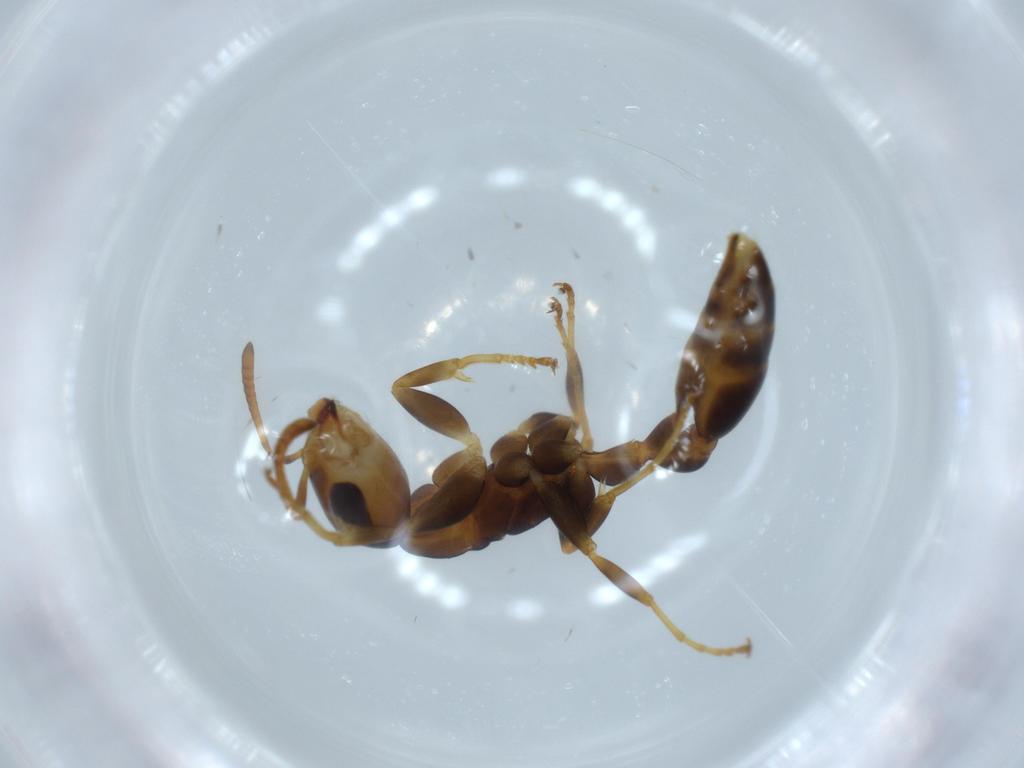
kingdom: Animalia
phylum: Arthropoda
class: Insecta
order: Hymenoptera
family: Formicidae
